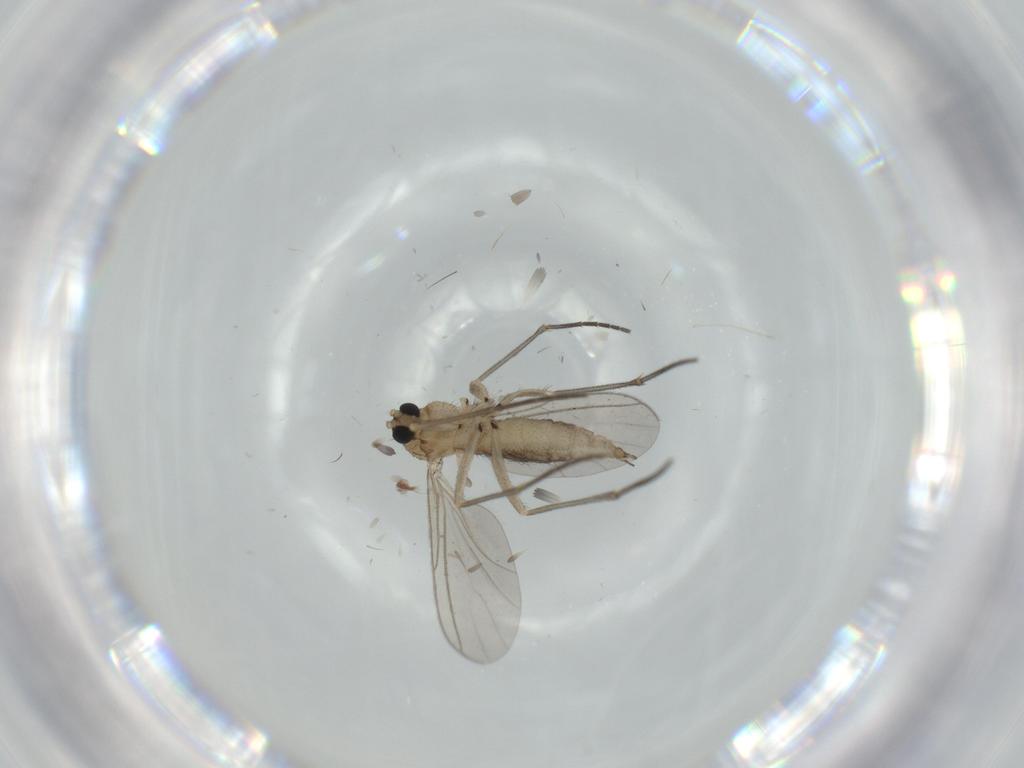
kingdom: Animalia
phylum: Arthropoda
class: Insecta
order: Diptera
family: Sciaridae
